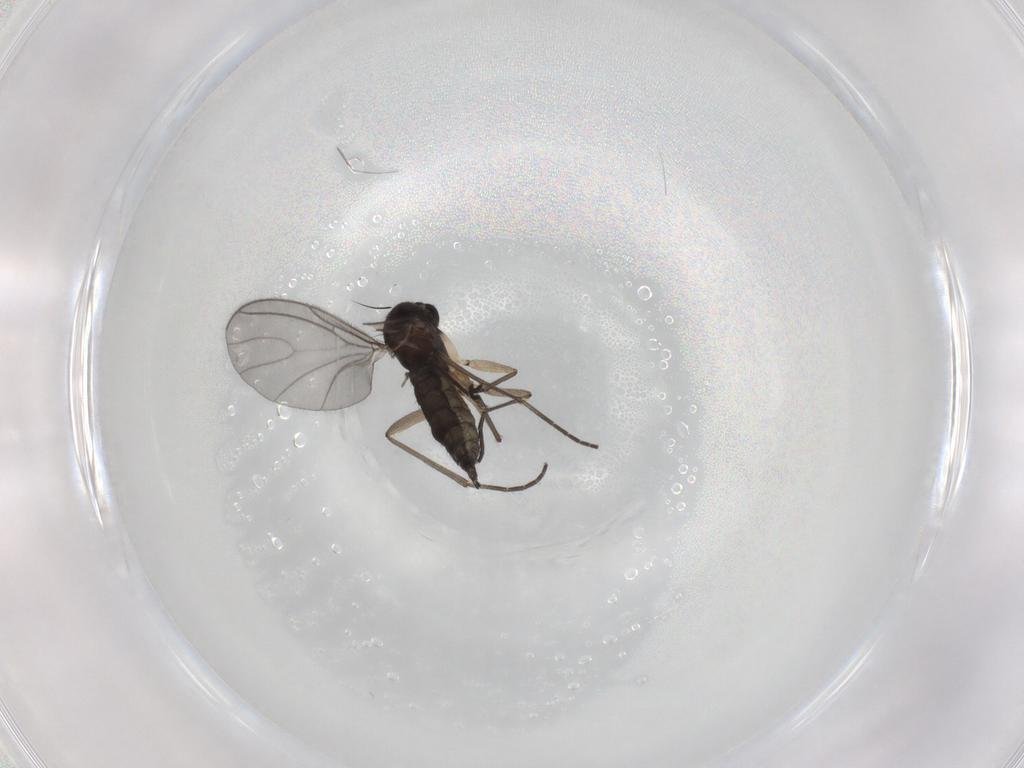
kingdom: Animalia
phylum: Arthropoda
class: Insecta
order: Diptera
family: Sciaridae
